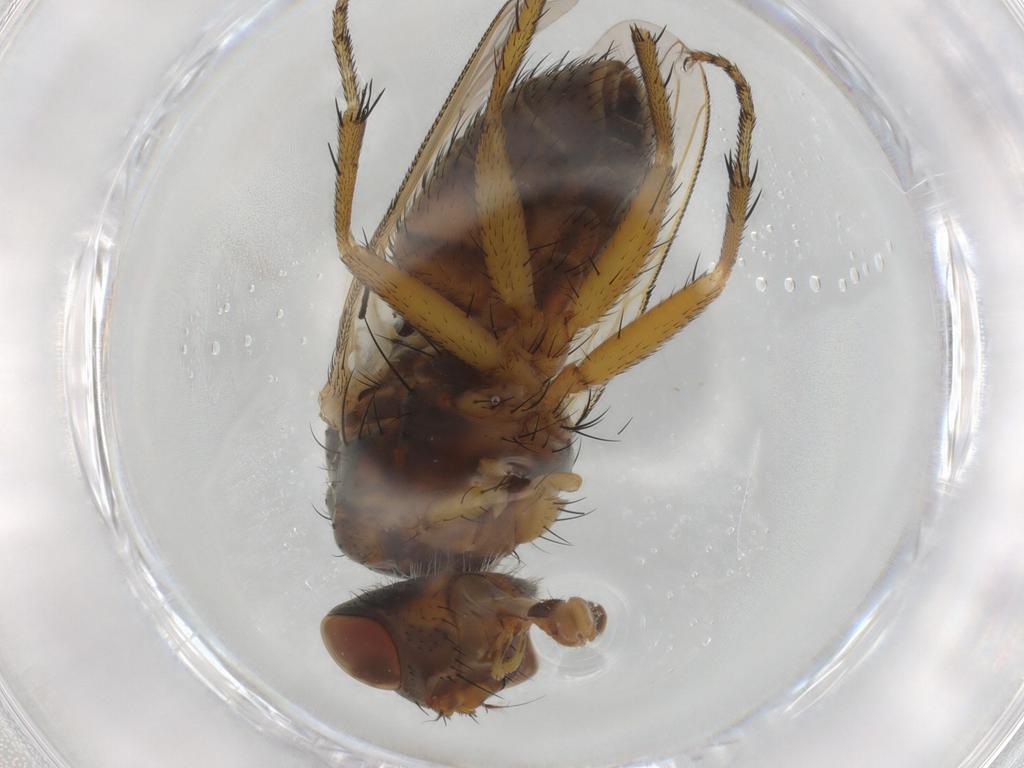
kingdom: Animalia
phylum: Arthropoda
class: Insecta
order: Diptera
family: Sarcophagidae
